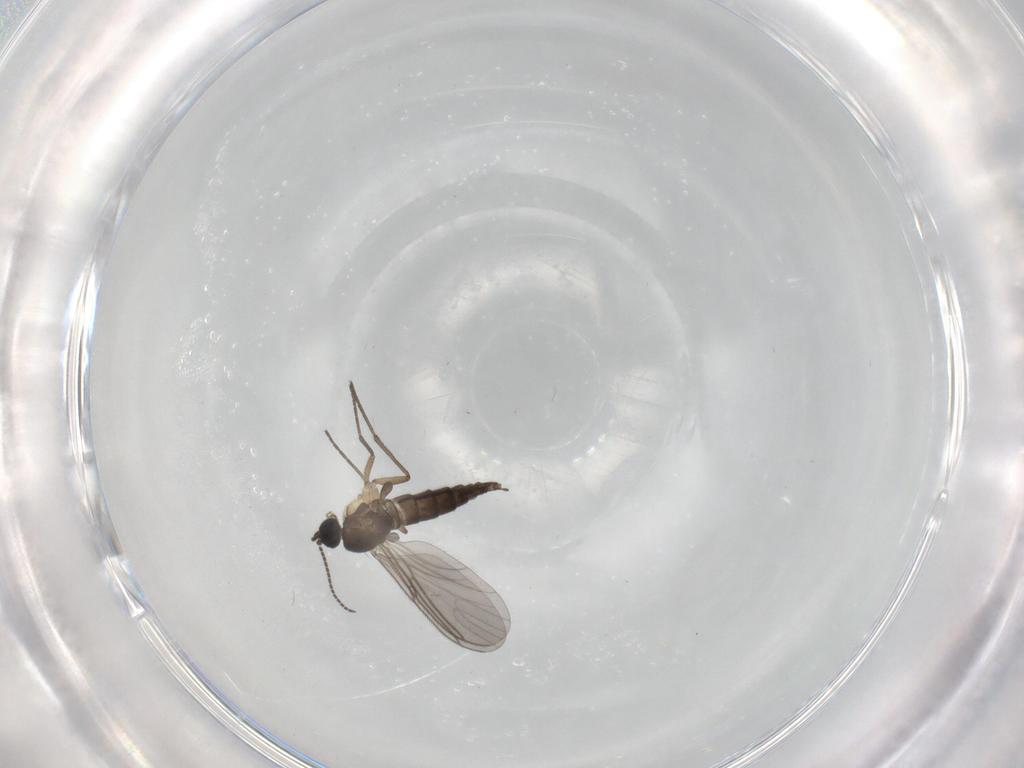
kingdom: Animalia
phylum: Arthropoda
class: Insecta
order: Diptera
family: Sciaridae
